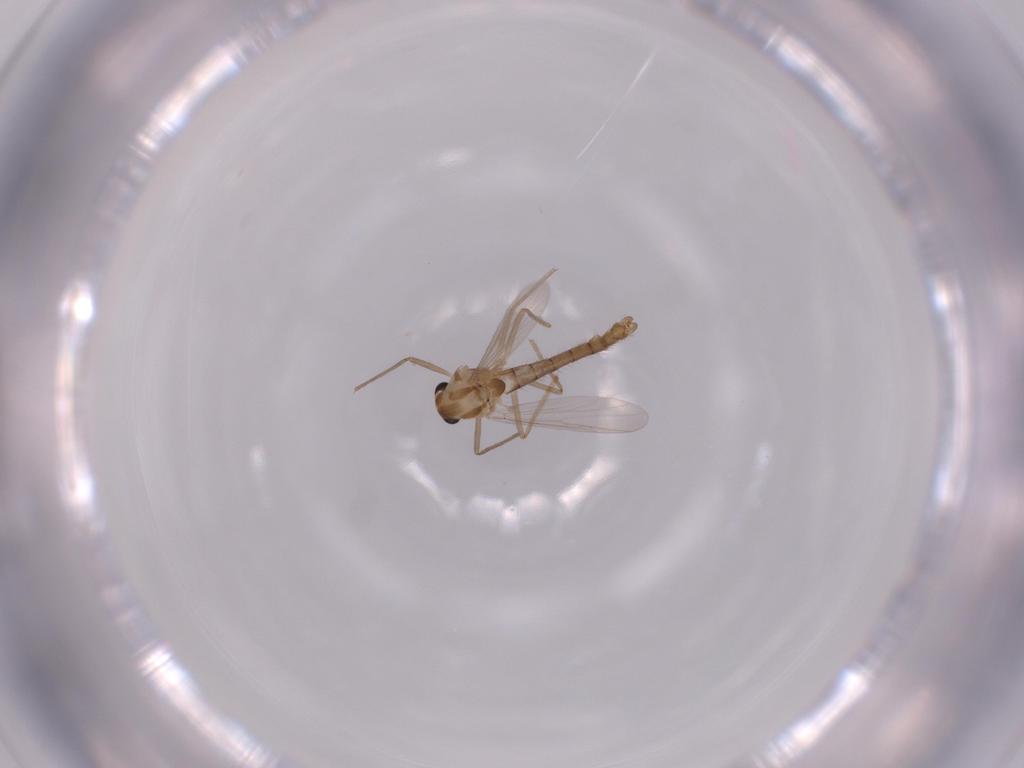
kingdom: Animalia
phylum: Arthropoda
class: Insecta
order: Diptera
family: Chironomidae
